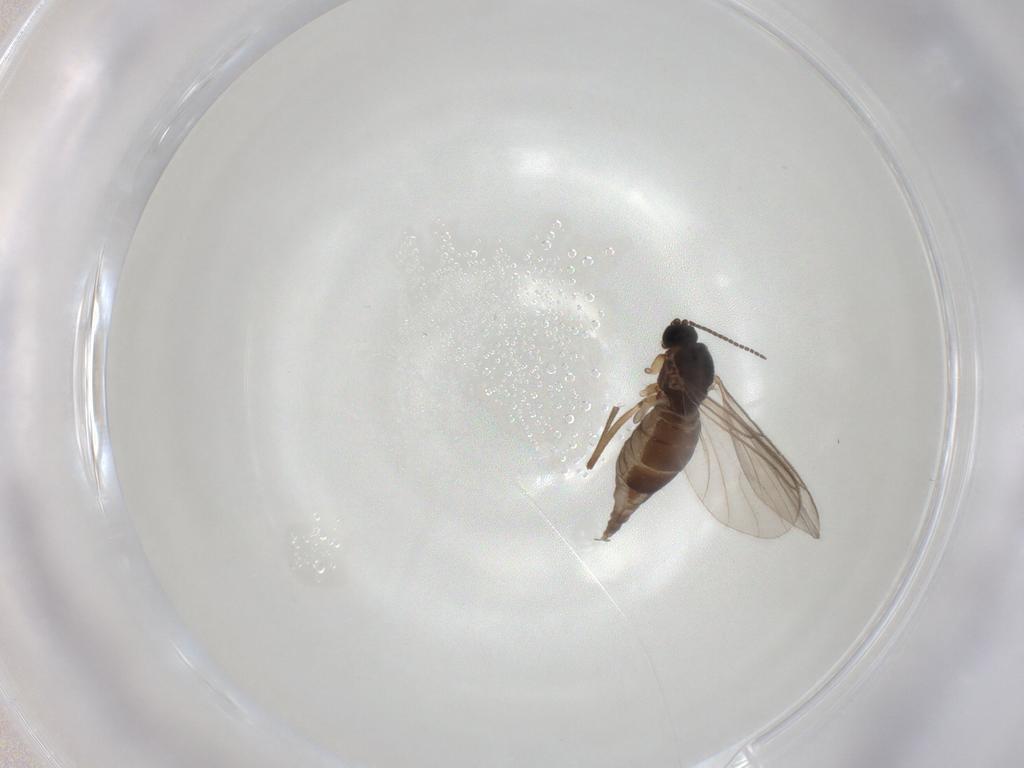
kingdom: Animalia
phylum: Arthropoda
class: Insecta
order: Diptera
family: Sciaridae
